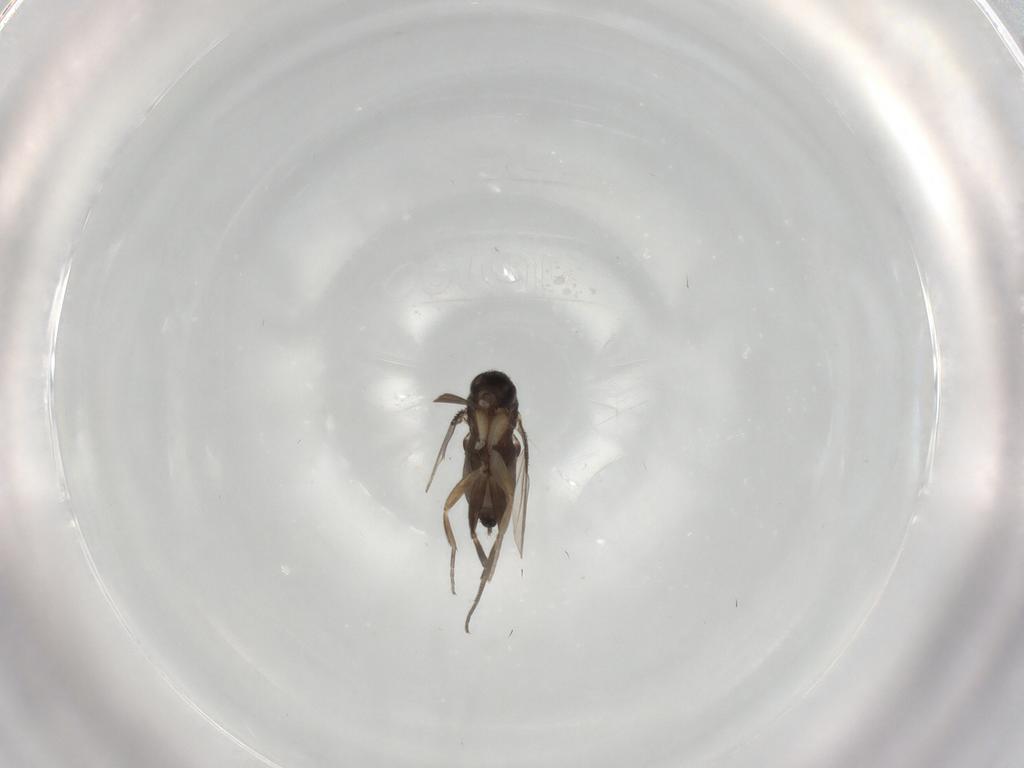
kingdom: Animalia
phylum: Arthropoda
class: Insecta
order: Diptera
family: Phoridae
